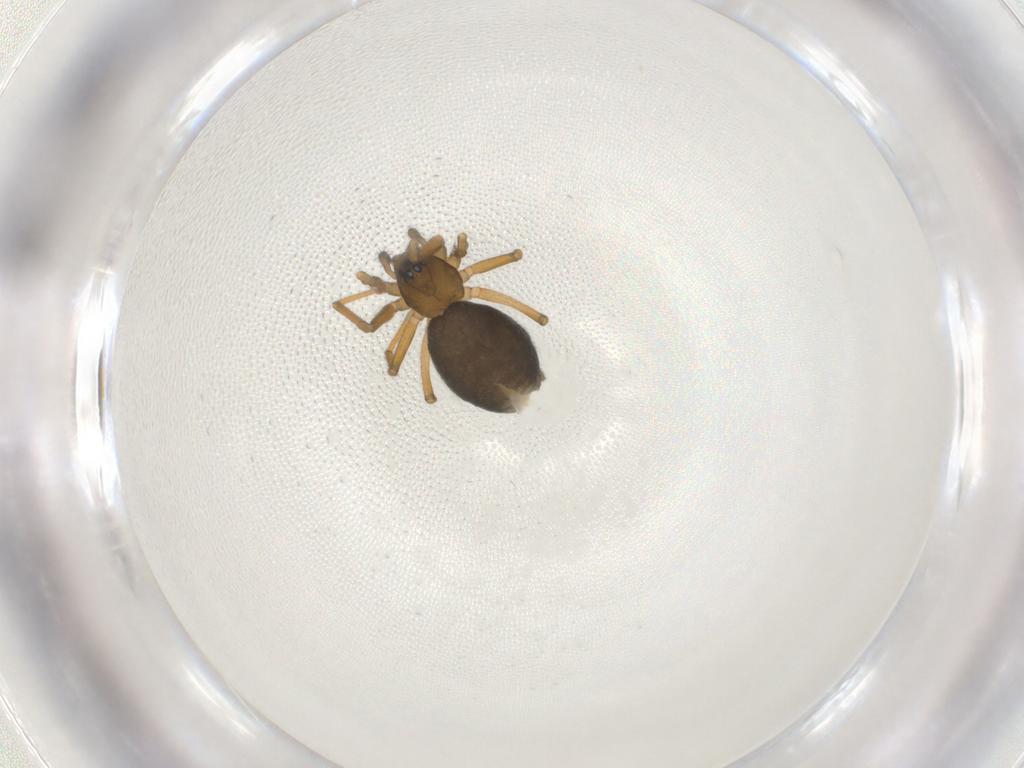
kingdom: Animalia
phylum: Arthropoda
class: Arachnida
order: Araneae
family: Linyphiidae
